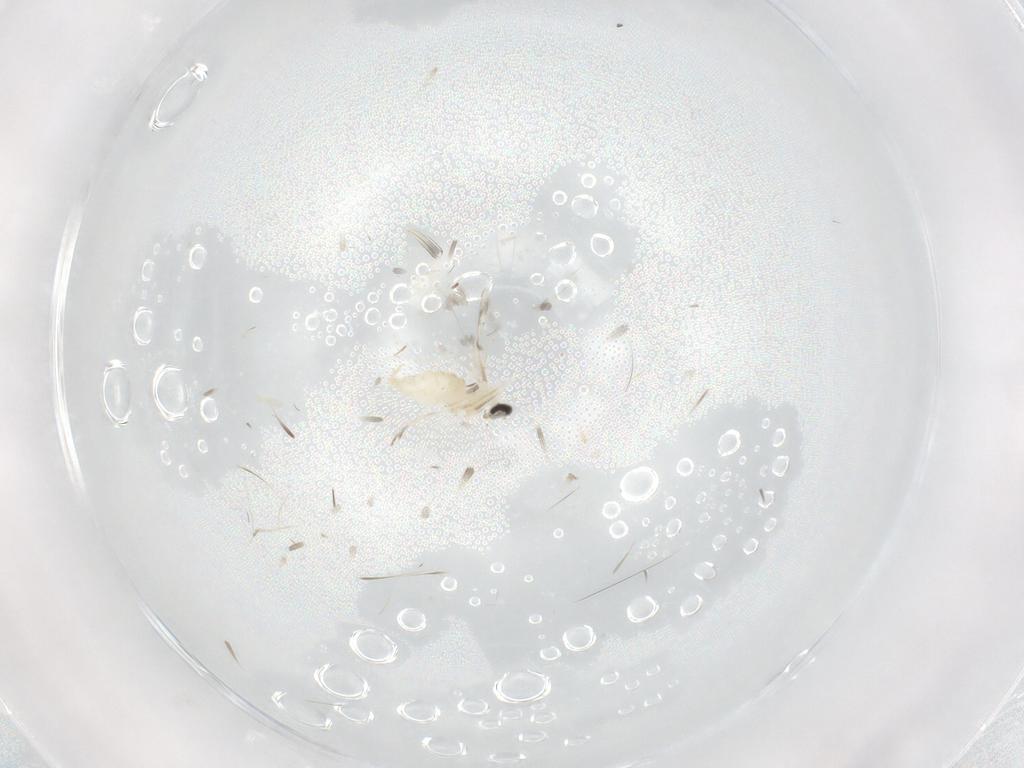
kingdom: Animalia
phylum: Arthropoda
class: Insecta
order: Diptera
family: Cecidomyiidae
